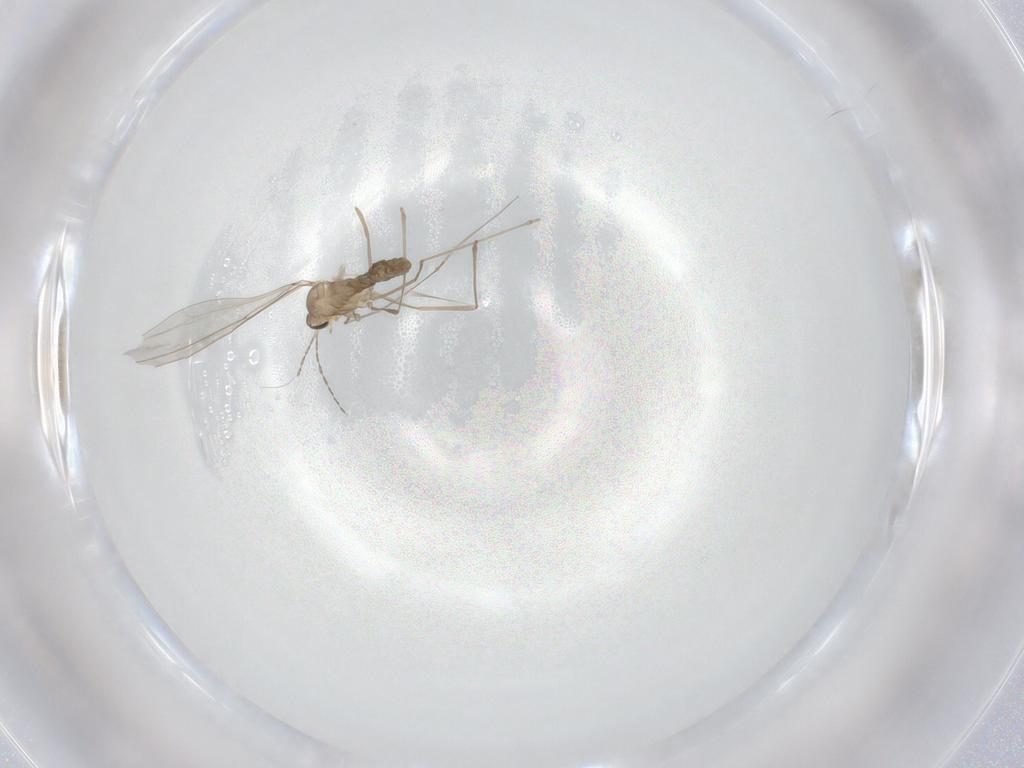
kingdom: Animalia
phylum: Arthropoda
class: Insecta
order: Diptera
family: Cecidomyiidae
